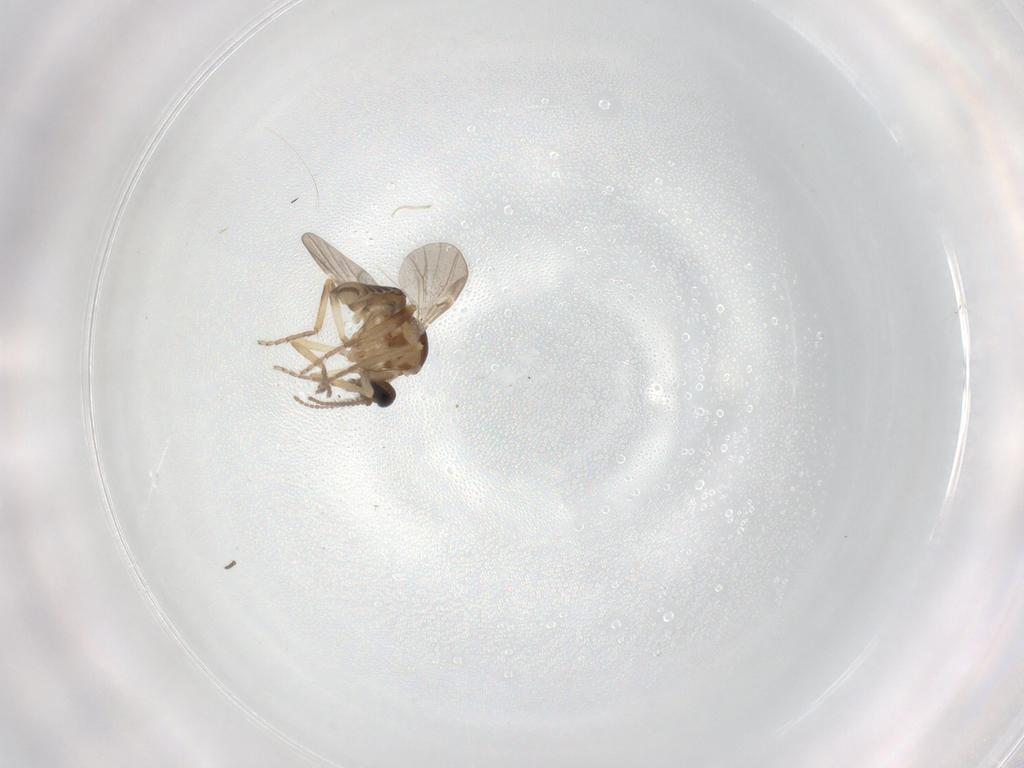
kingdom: Animalia
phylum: Arthropoda
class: Insecta
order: Diptera
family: Ceratopogonidae
